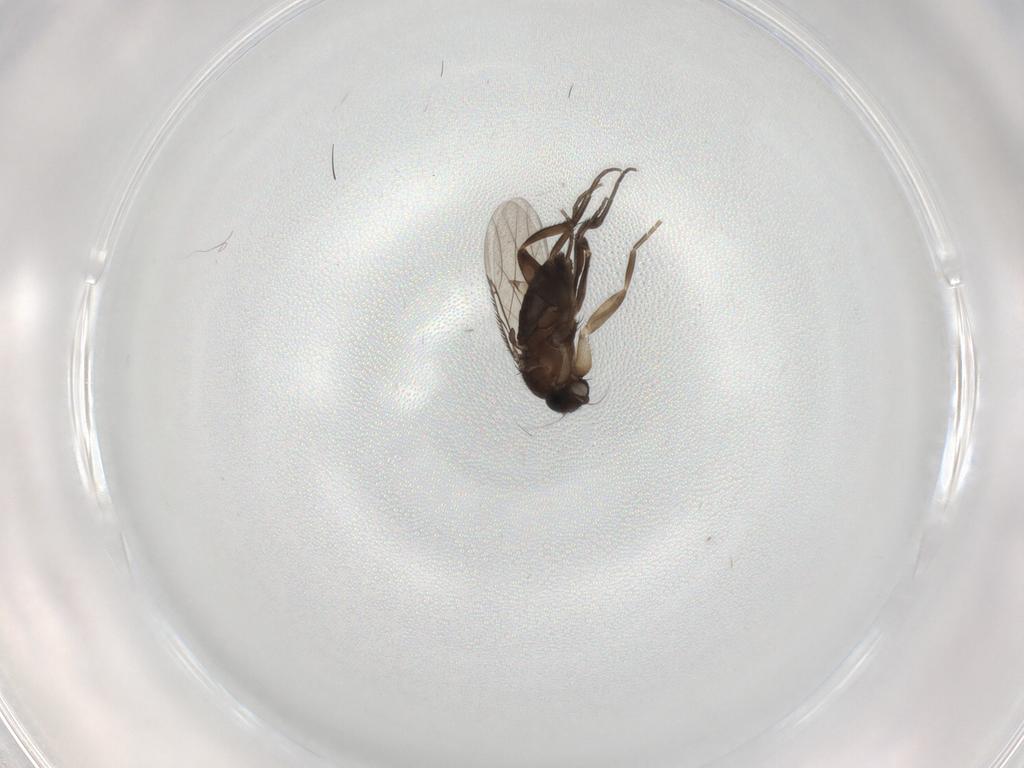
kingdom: Animalia
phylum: Arthropoda
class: Insecta
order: Diptera
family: Phoridae
